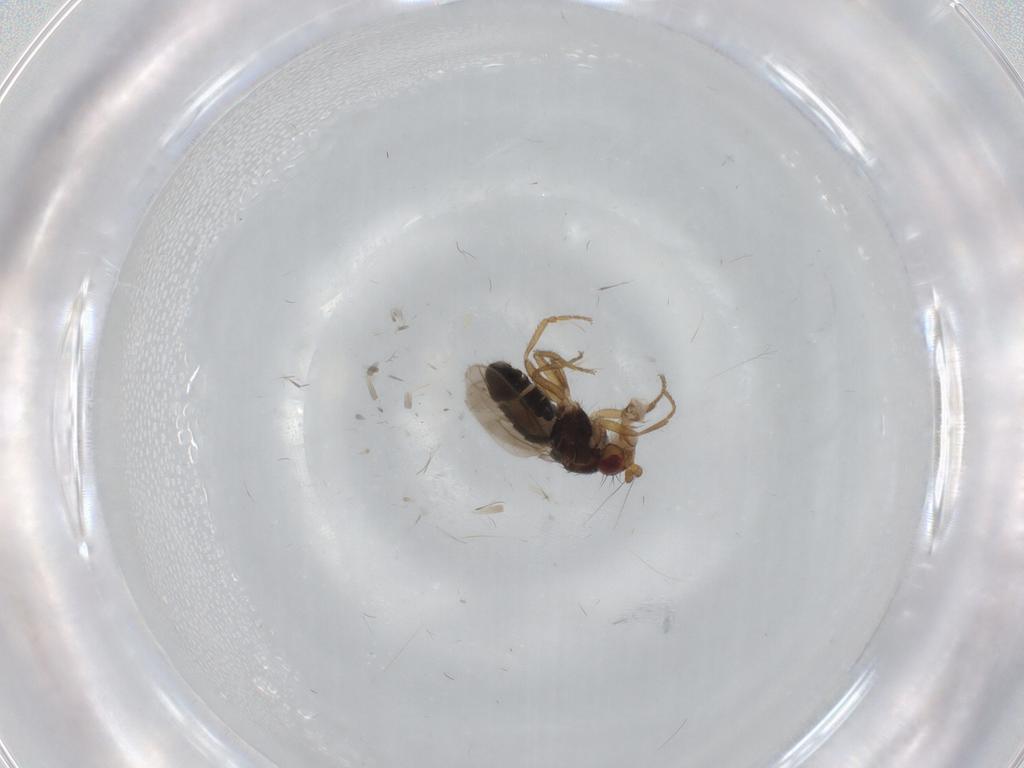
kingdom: Animalia
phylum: Arthropoda
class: Insecta
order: Diptera
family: Sphaeroceridae
